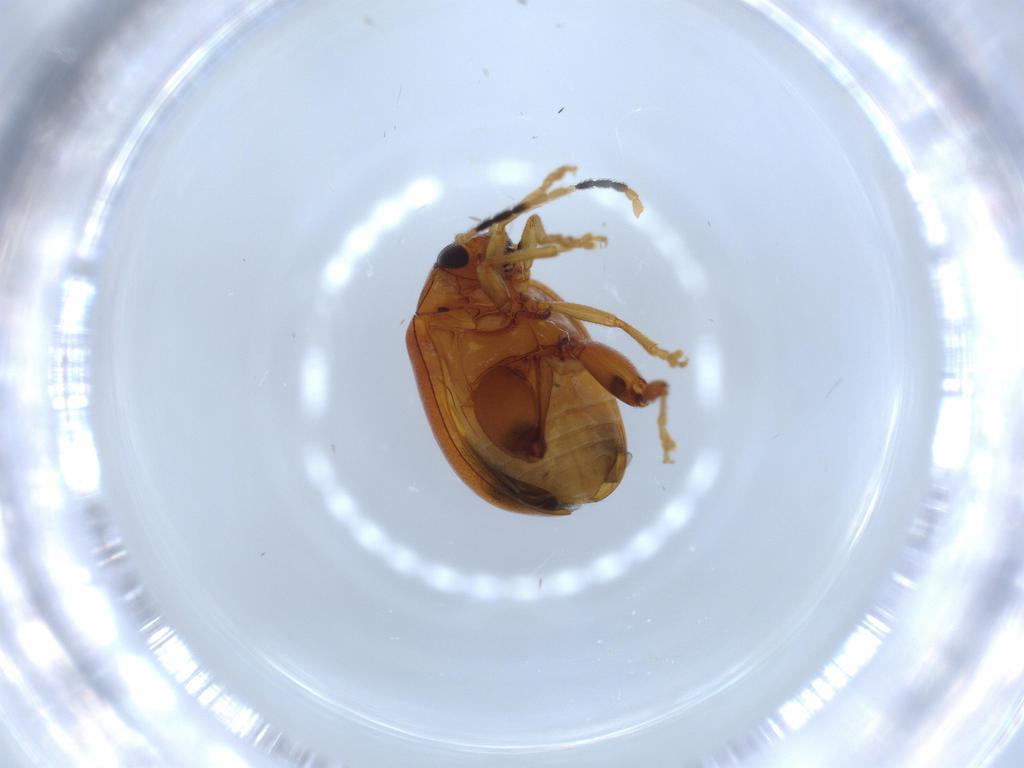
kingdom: Animalia
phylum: Arthropoda
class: Insecta
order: Coleoptera
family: Chrysomelidae
